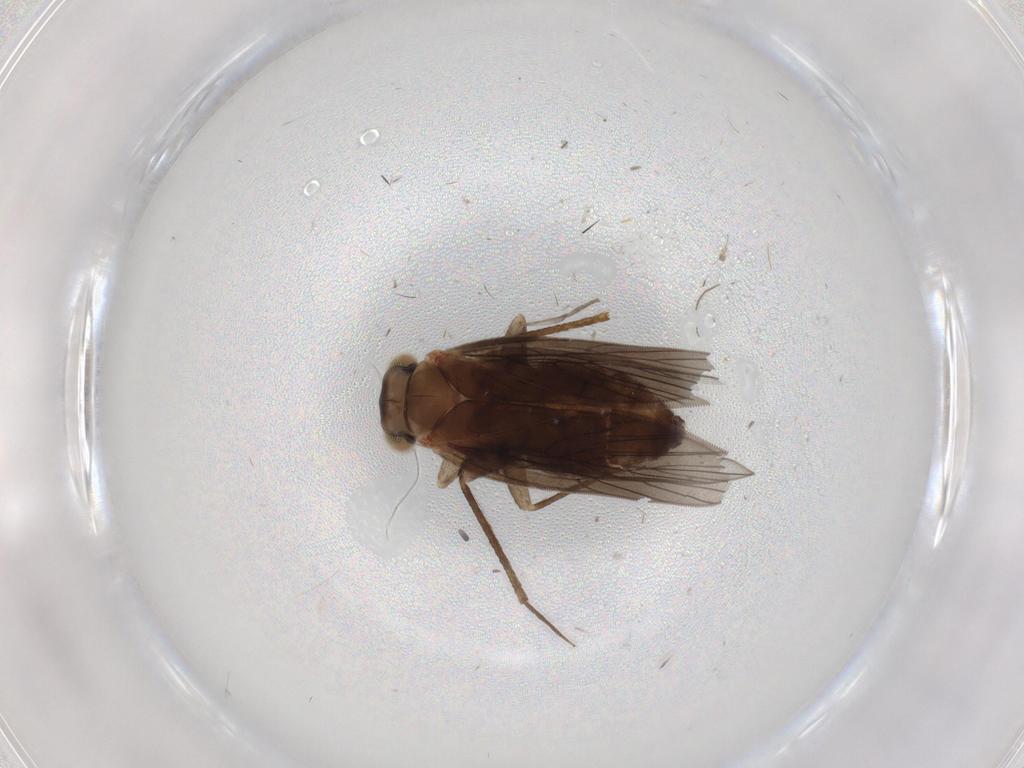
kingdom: Animalia
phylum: Arthropoda
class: Insecta
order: Psocodea
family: Lepidopsocidae
